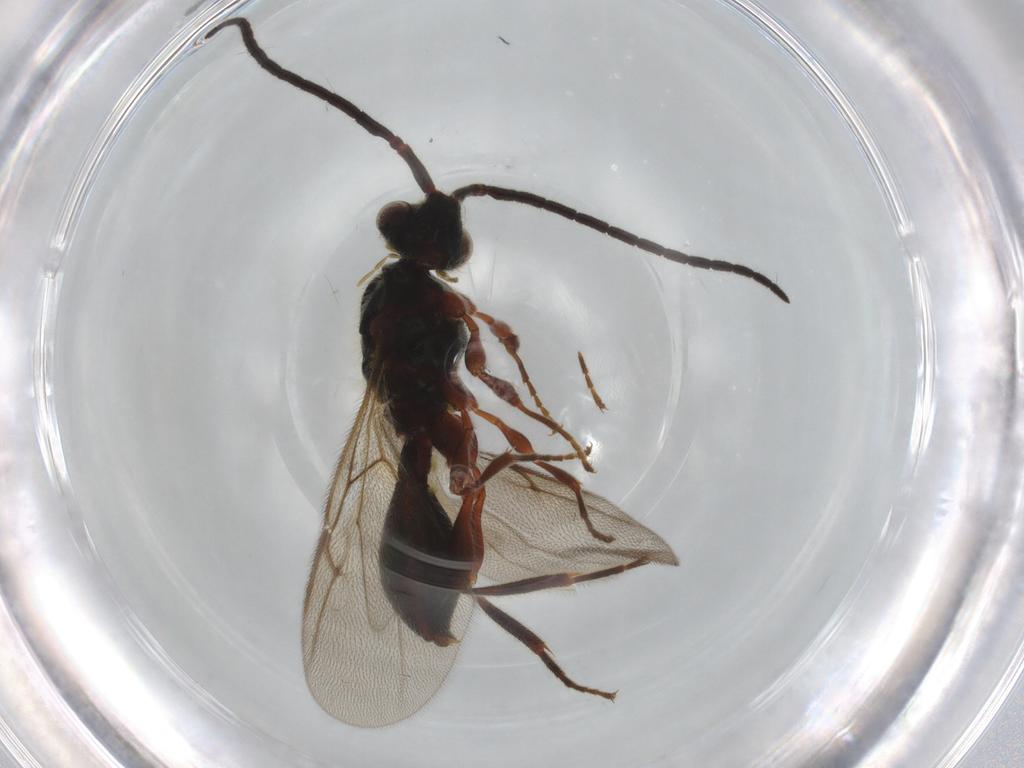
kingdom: Animalia
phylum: Arthropoda
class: Insecta
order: Hymenoptera
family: Diapriidae
